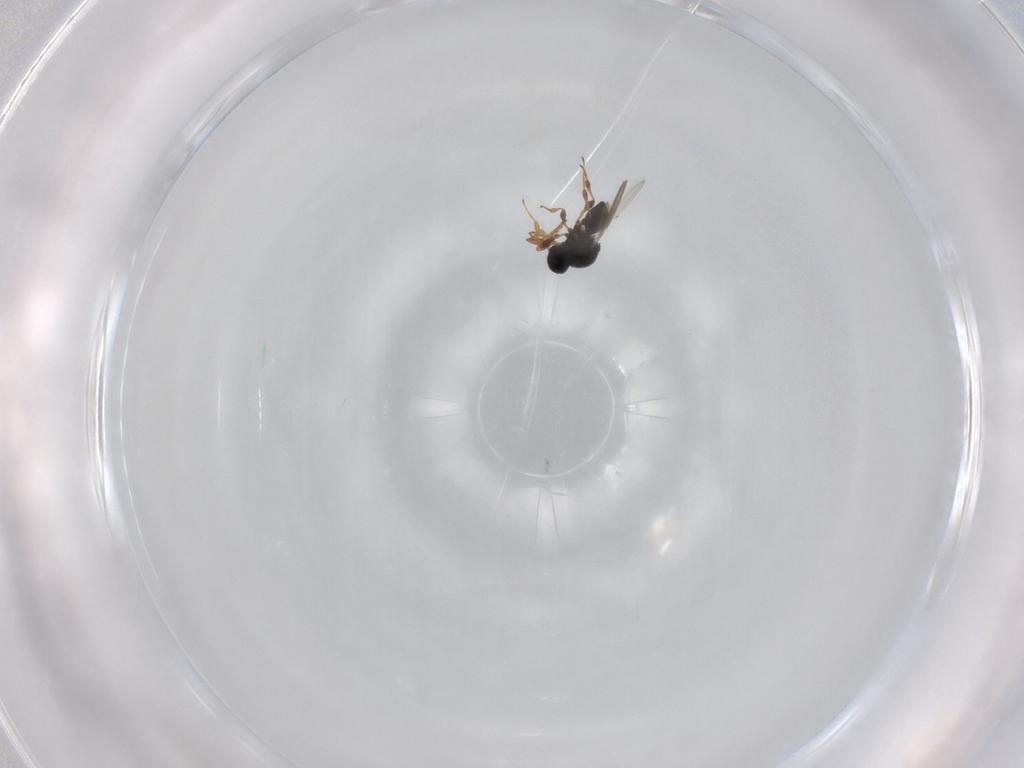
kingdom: Animalia
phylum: Arthropoda
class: Insecta
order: Hymenoptera
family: Platygastridae
